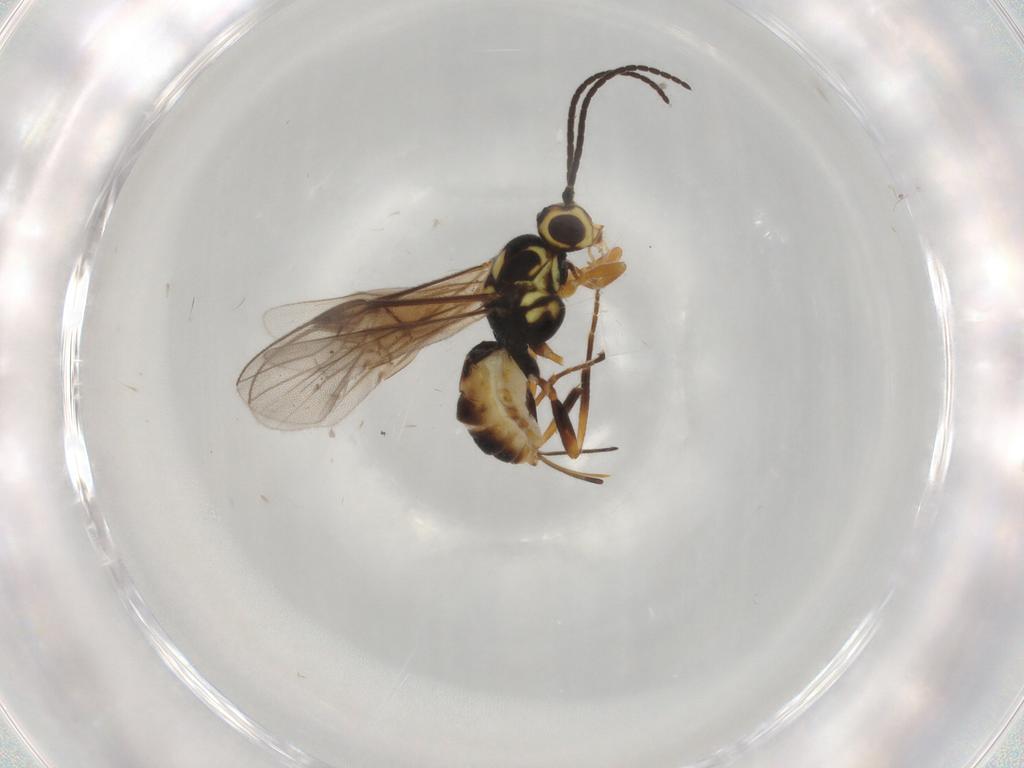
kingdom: Animalia
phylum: Arthropoda
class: Insecta
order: Hymenoptera
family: Braconidae
